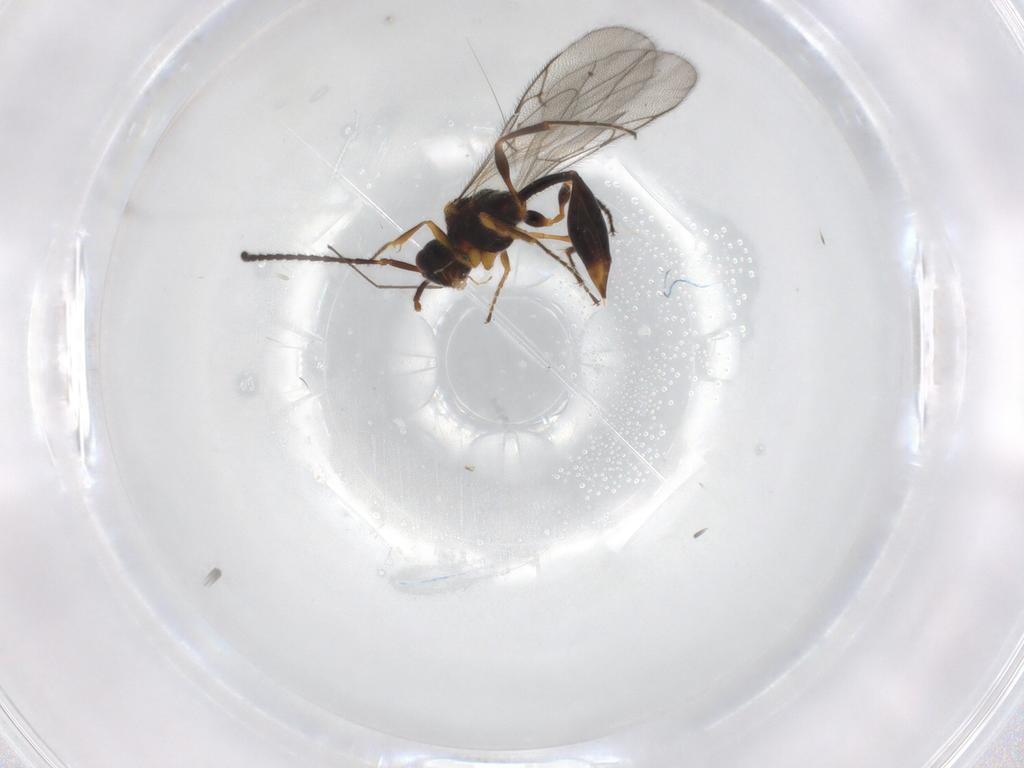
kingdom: Animalia
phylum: Arthropoda
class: Insecta
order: Hymenoptera
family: Diapriidae
